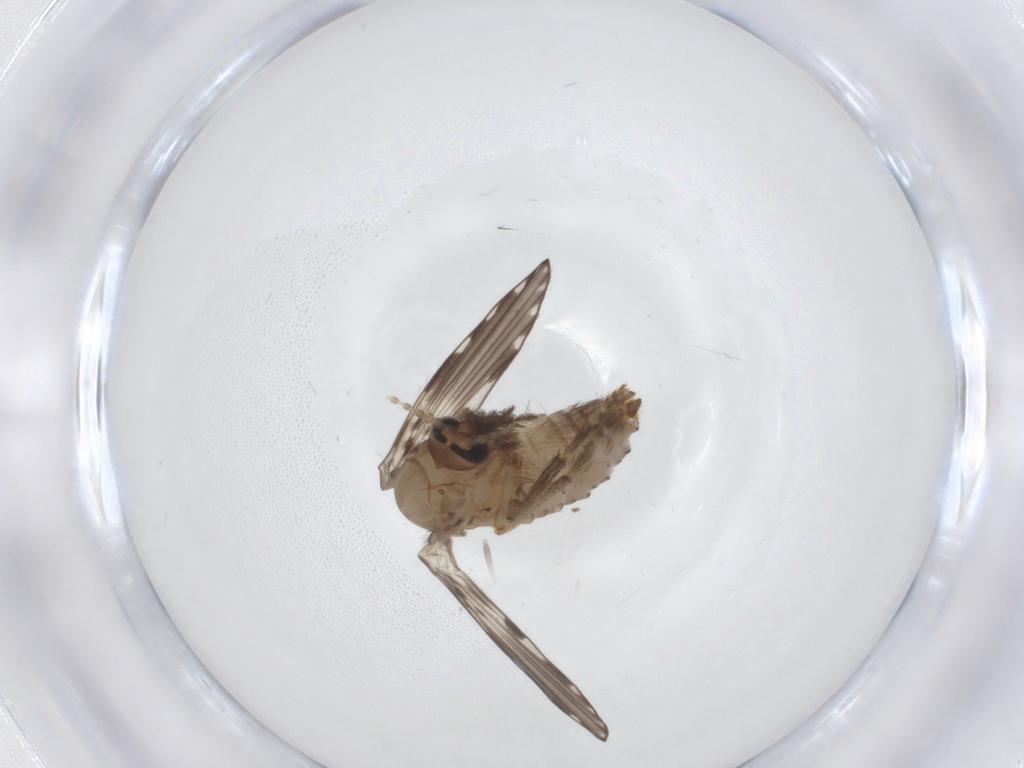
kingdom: Animalia
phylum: Arthropoda
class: Insecta
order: Diptera
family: Psychodidae
